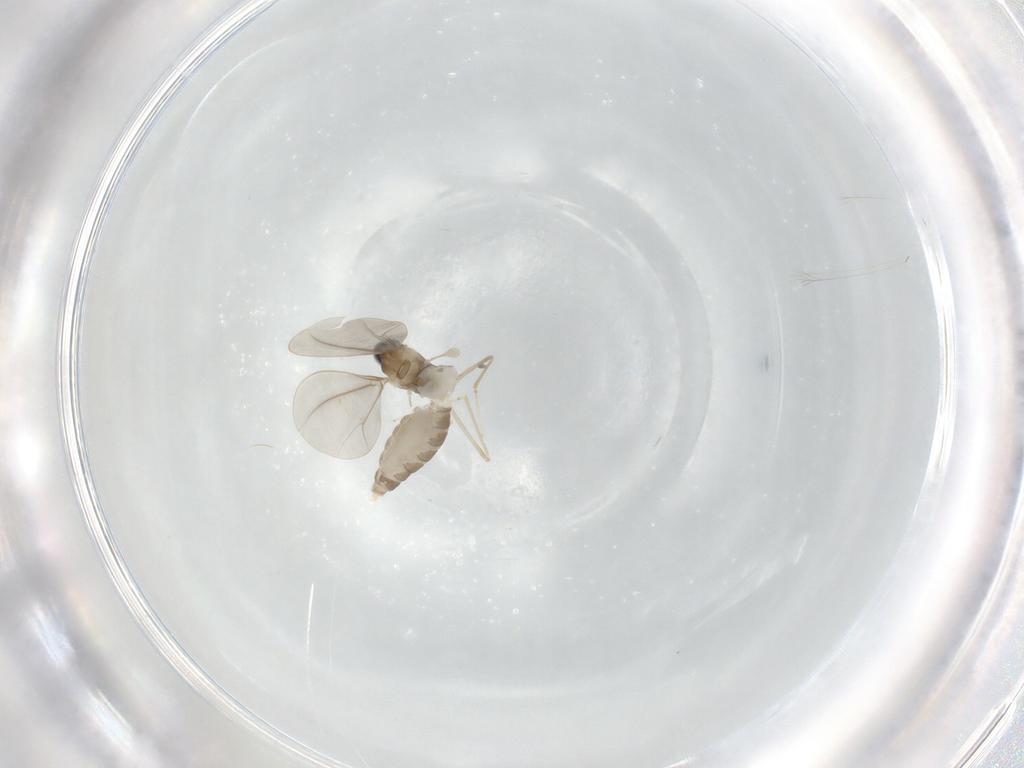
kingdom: Animalia
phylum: Arthropoda
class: Insecta
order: Diptera
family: Cecidomyiidae
